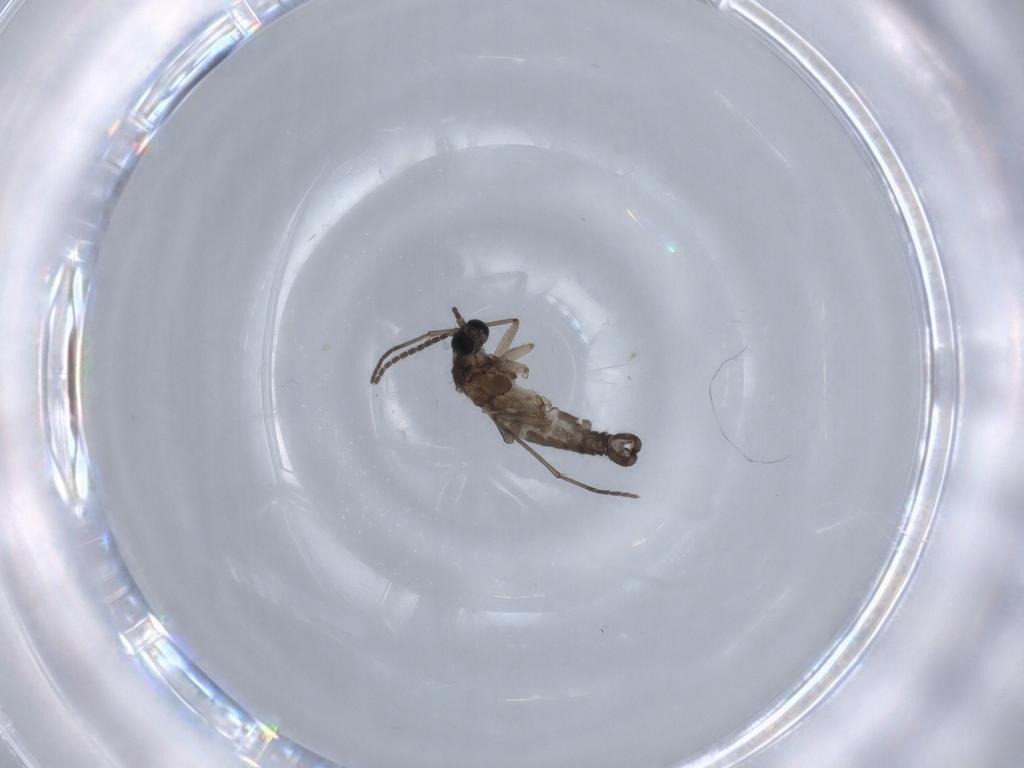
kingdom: Animalia
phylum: Arthropoda
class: Insecta
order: Diptera
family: Sciaridae
